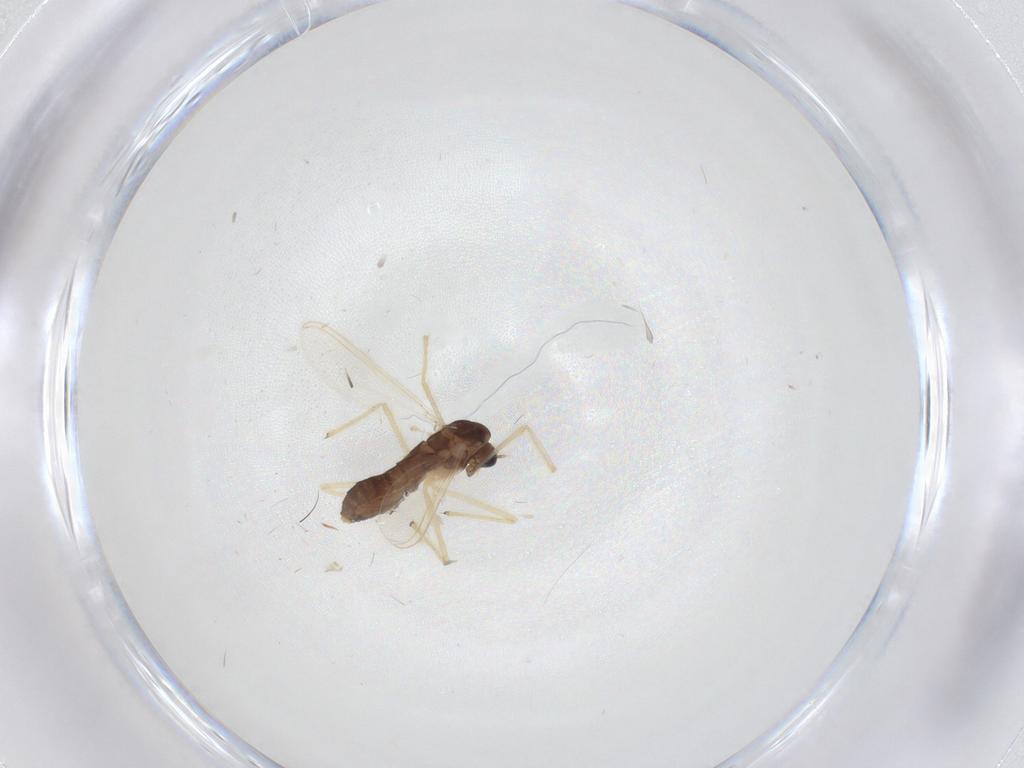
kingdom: Animalia
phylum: Arthropoda
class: Insecta
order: Diptera
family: Chironomidae
